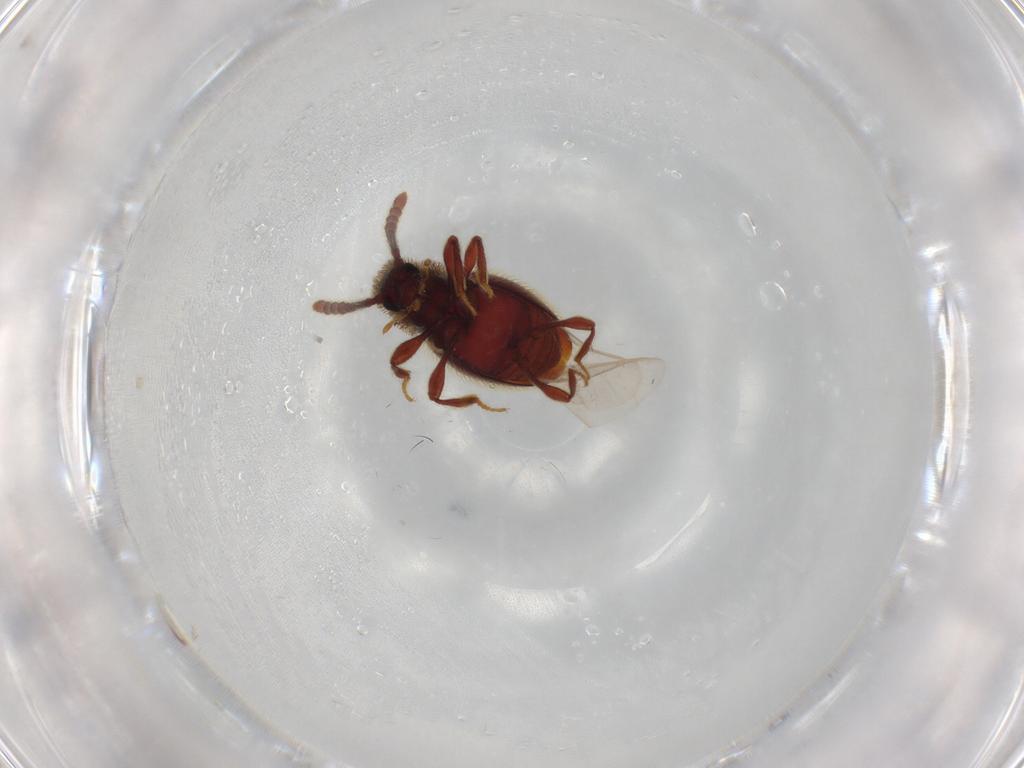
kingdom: Animalia
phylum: Arthropoda
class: Insecta
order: Coleoptera
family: Staphylinidae
